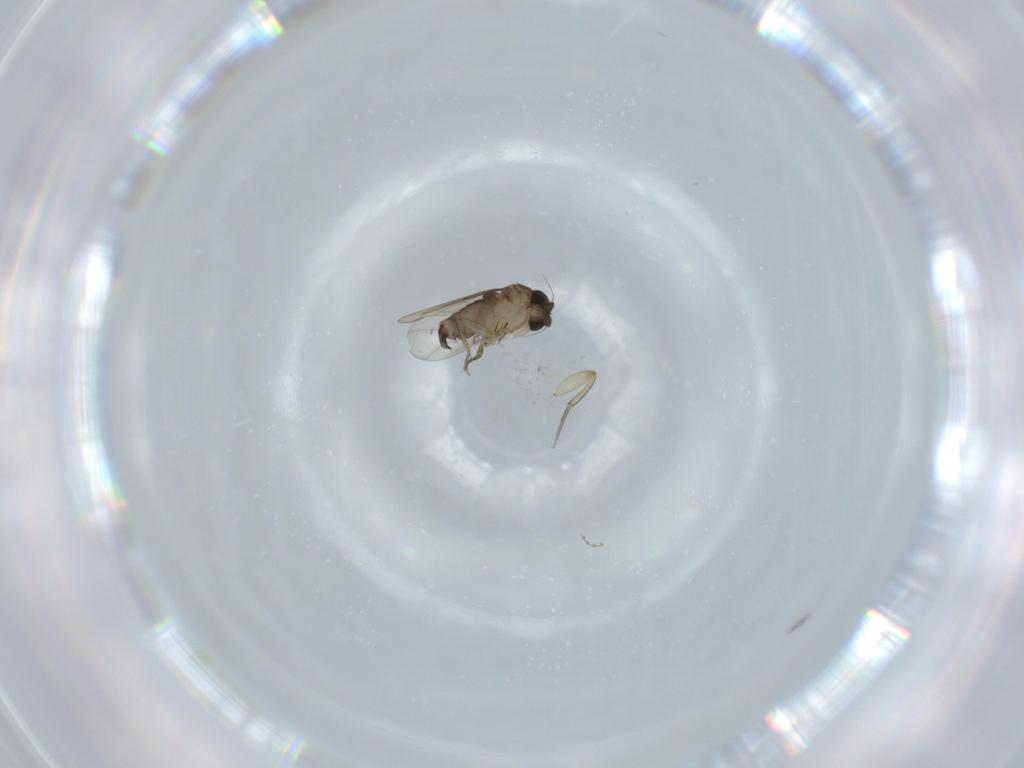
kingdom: Animalia
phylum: Arthropoda
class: Insecta
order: Diptera
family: Phoridae
